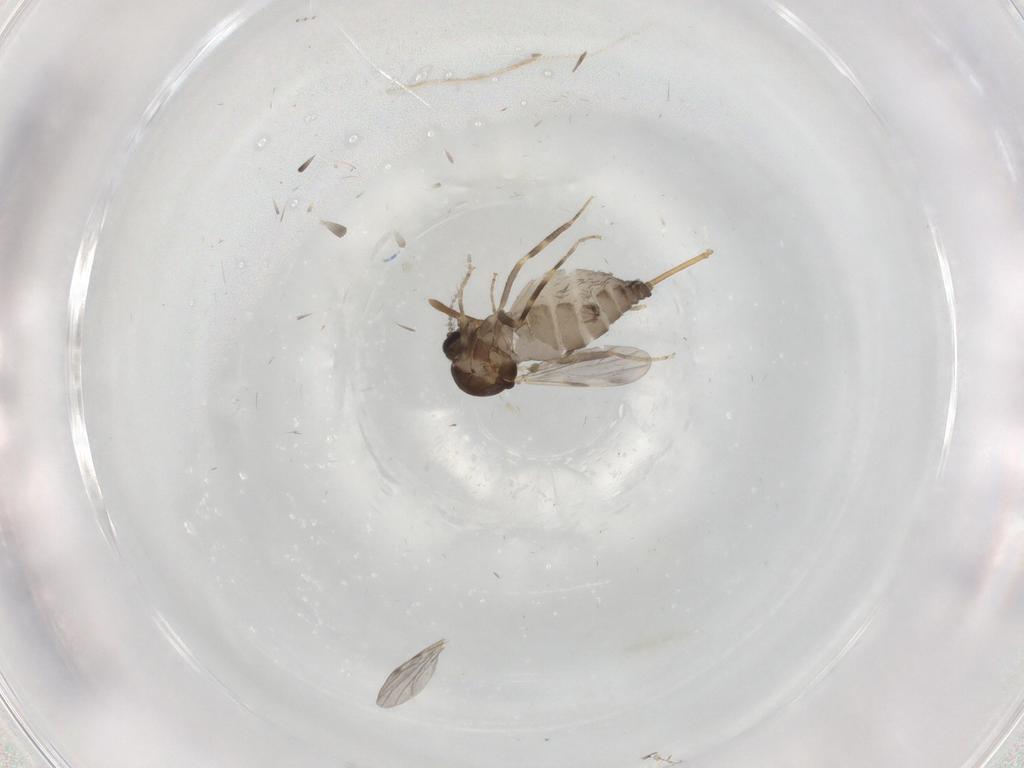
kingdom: Animalia
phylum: Arthropoda
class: Insecta
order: Diptera
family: Ceratopogonidae
